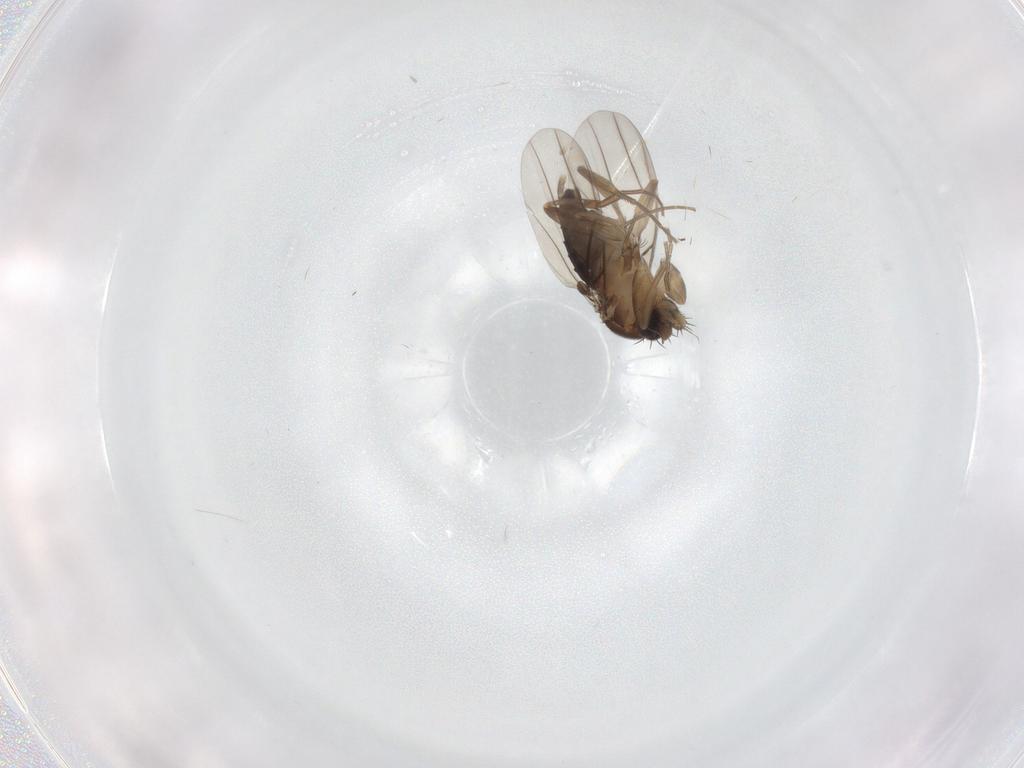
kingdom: Animalia
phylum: Arthropoda
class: Insecta
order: Diptera
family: Phoridae
